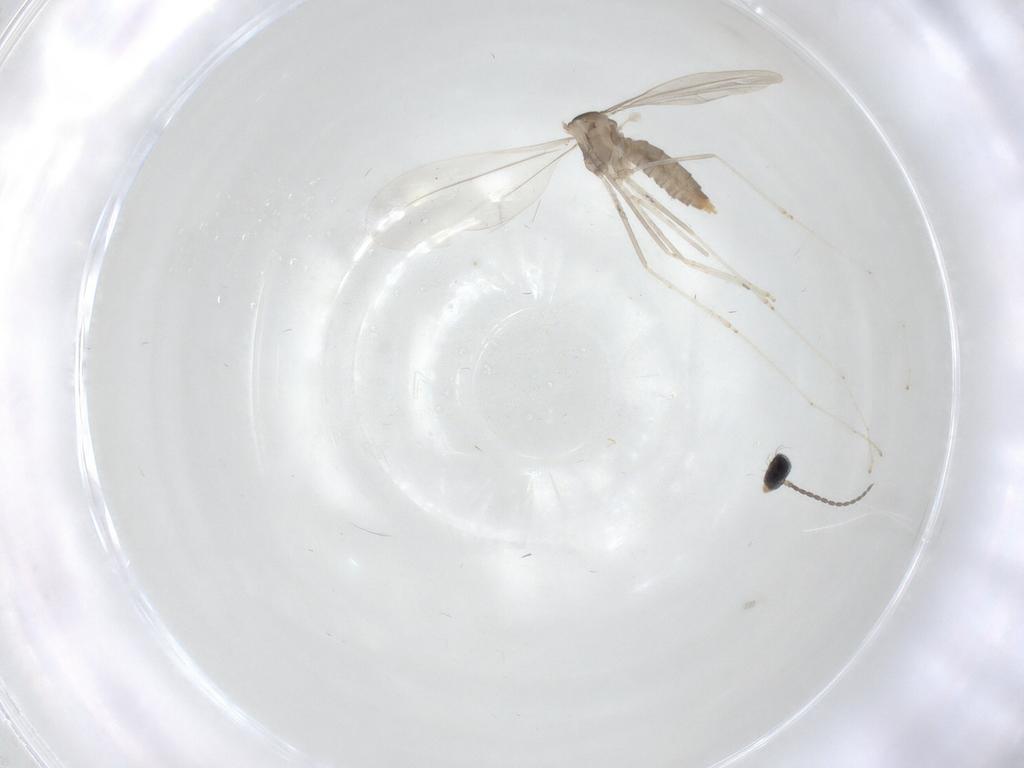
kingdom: Animalia
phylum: Arthropoda
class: Insecta
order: Diptera
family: Cecidomyiidae
